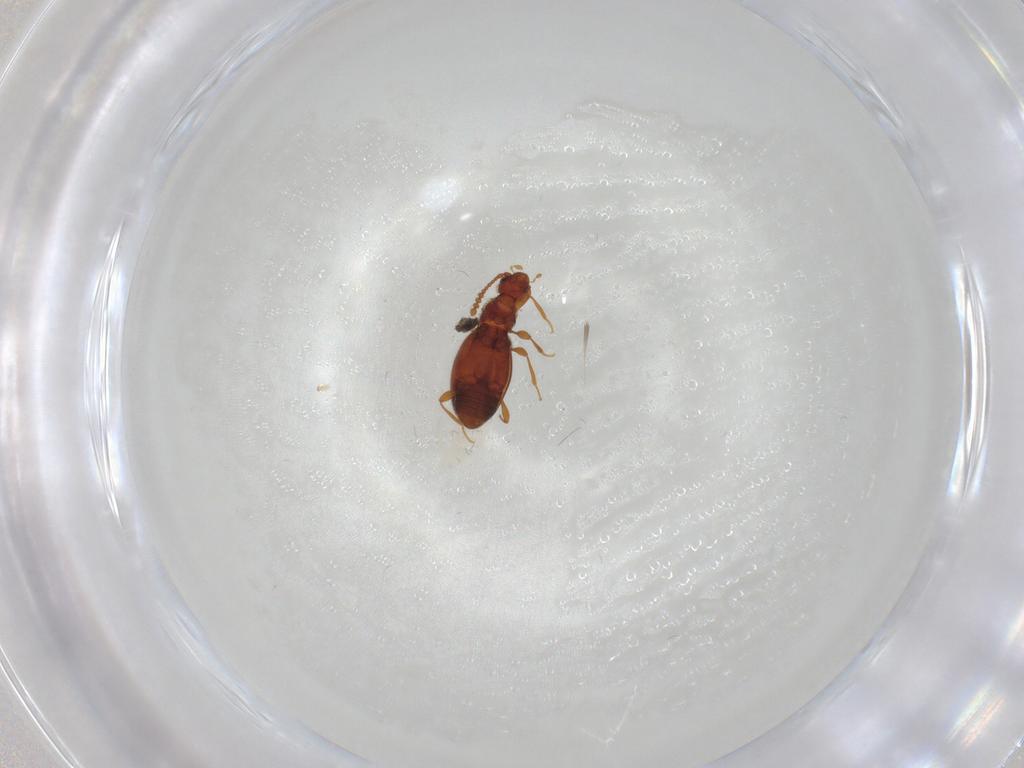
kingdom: Animalia
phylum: Arthropoda
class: Insecta
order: Coleoptera
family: Staphylinidae
